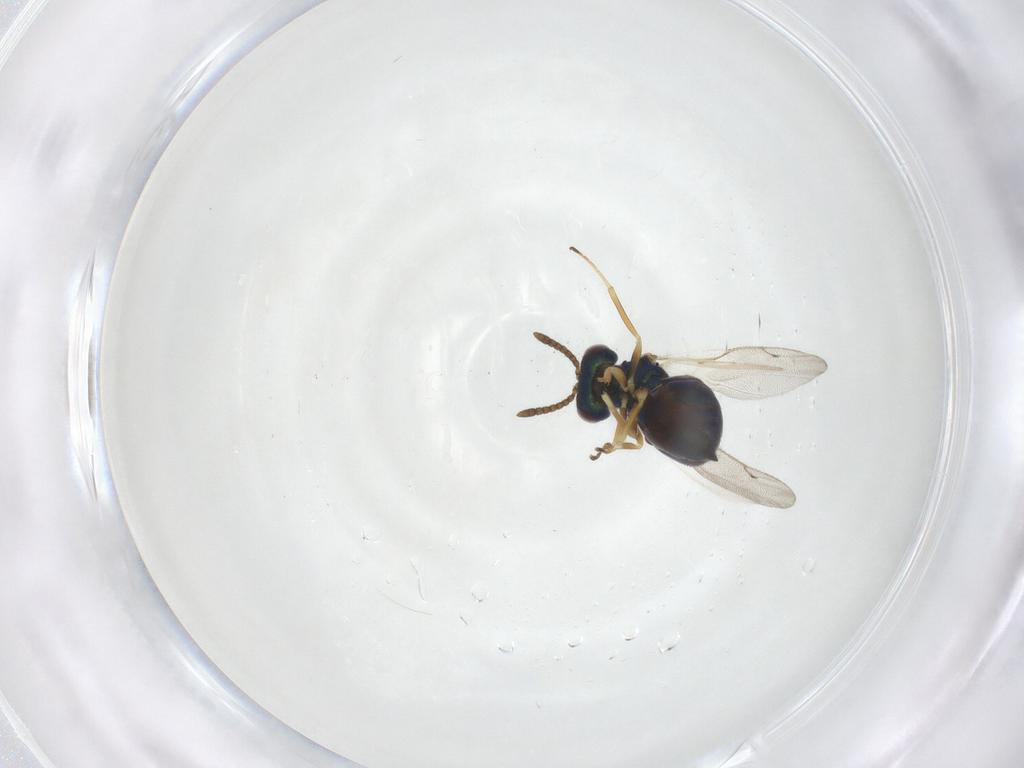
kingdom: Animalia
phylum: Arthropoda
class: Insecta
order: Hymenoptera
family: Pteromalidae
